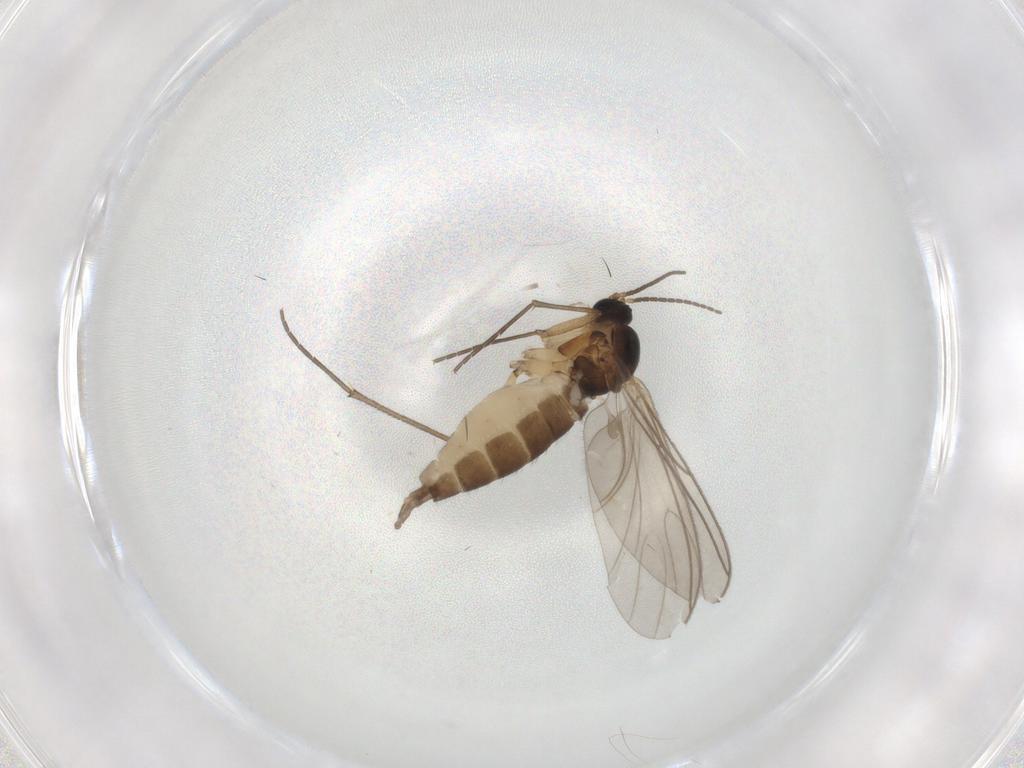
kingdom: Animalia
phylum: Arthropoda
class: Insecta
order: Diptera
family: Sciaridae
